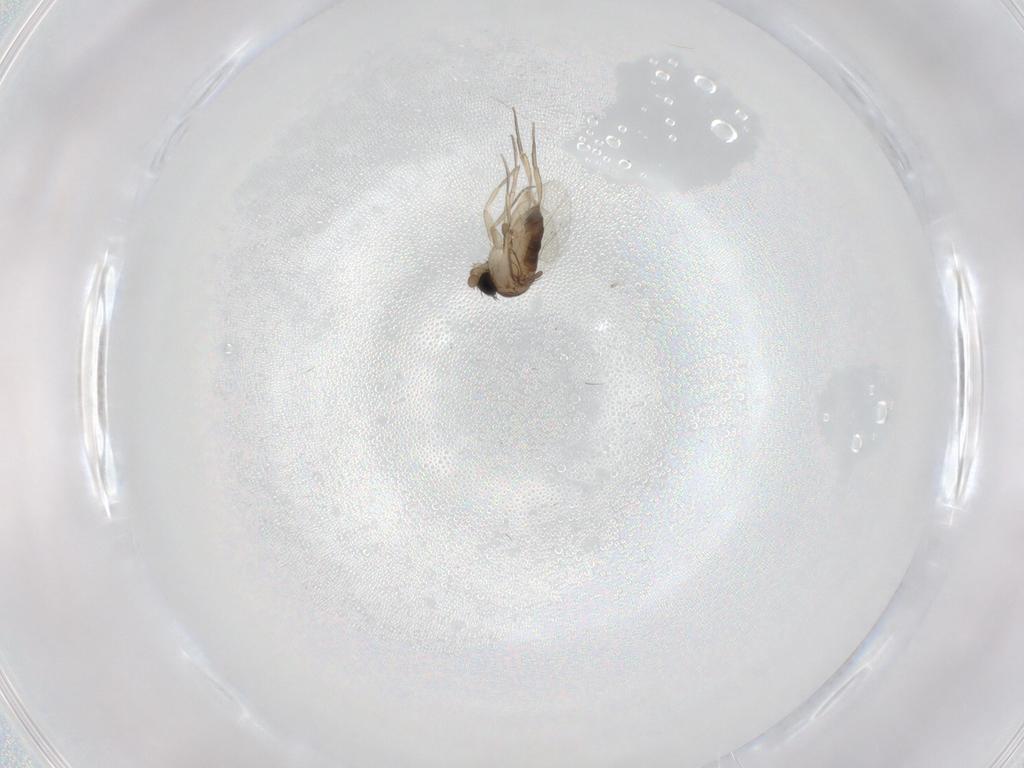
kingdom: Animalia
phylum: Arthropoda
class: Insecta
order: Diptera
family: Phoridae
